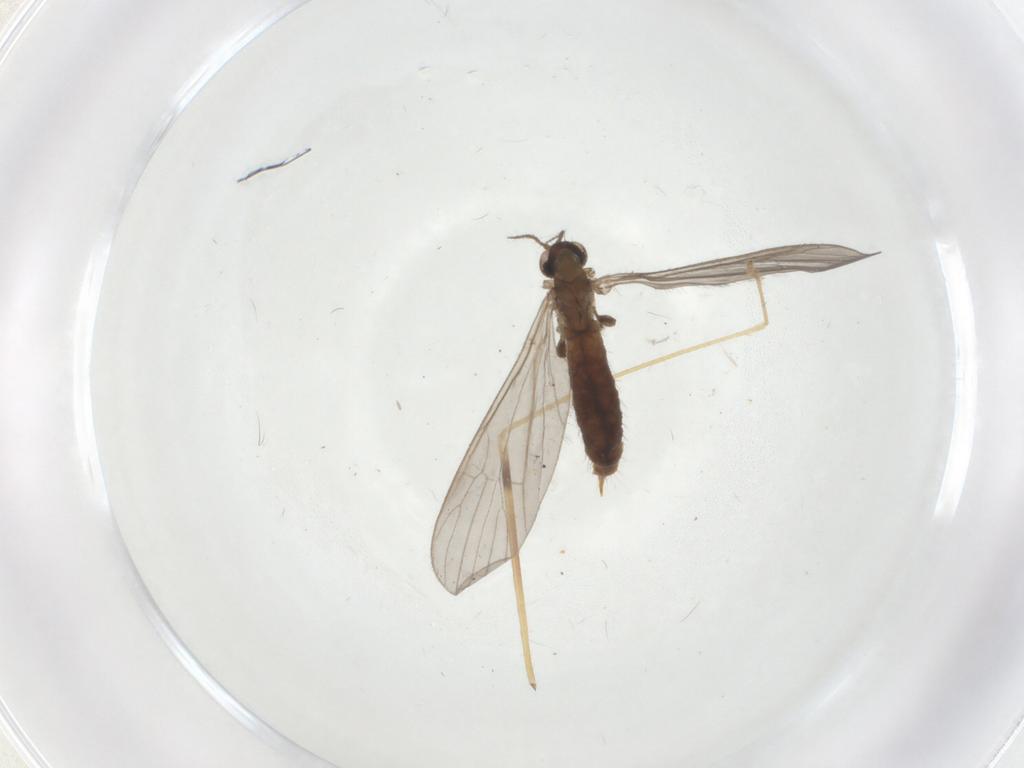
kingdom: Animalia
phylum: Arthropoda
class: Insecta
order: Diptera
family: Limoniidae
